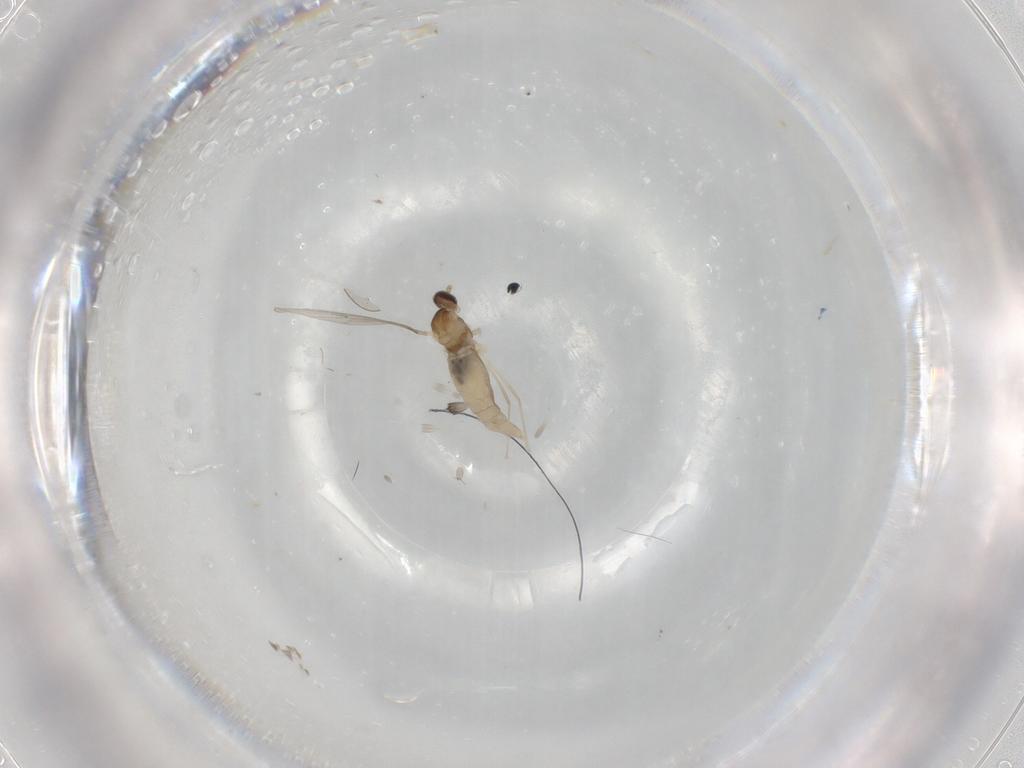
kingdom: Animalia
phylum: Arthropoda
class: Insecta
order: Diptera
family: Cecidomyiidae
